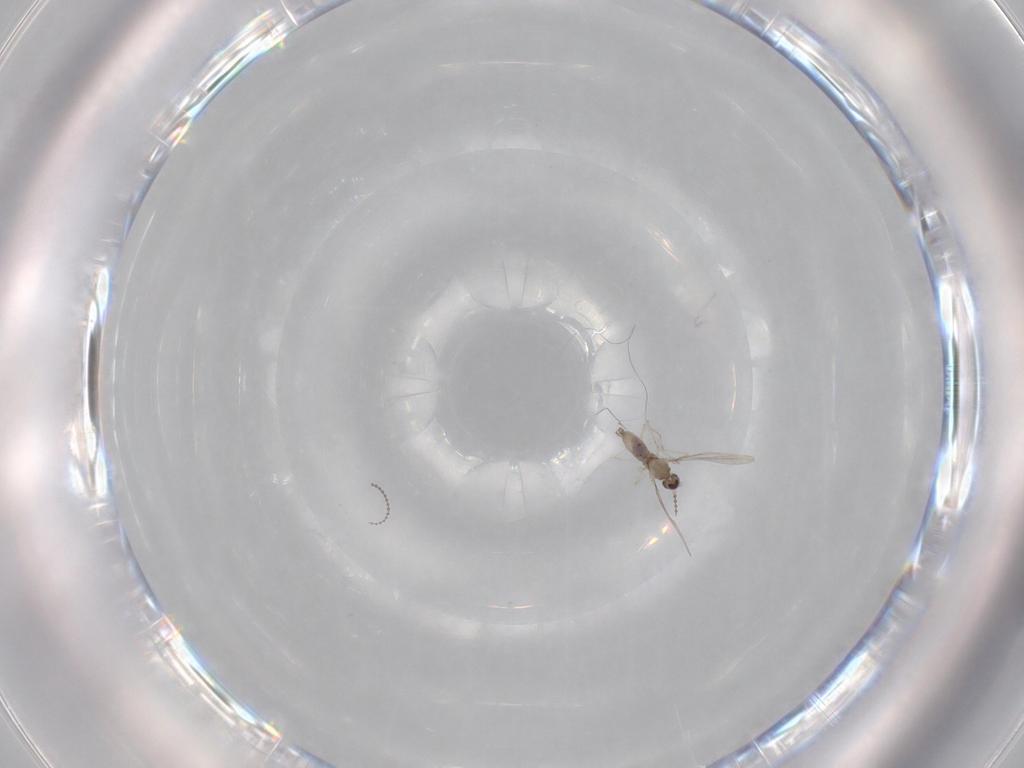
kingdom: Animalia
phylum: Arthropoda
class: Insecta
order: Diptera
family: Cecidomyiidae
